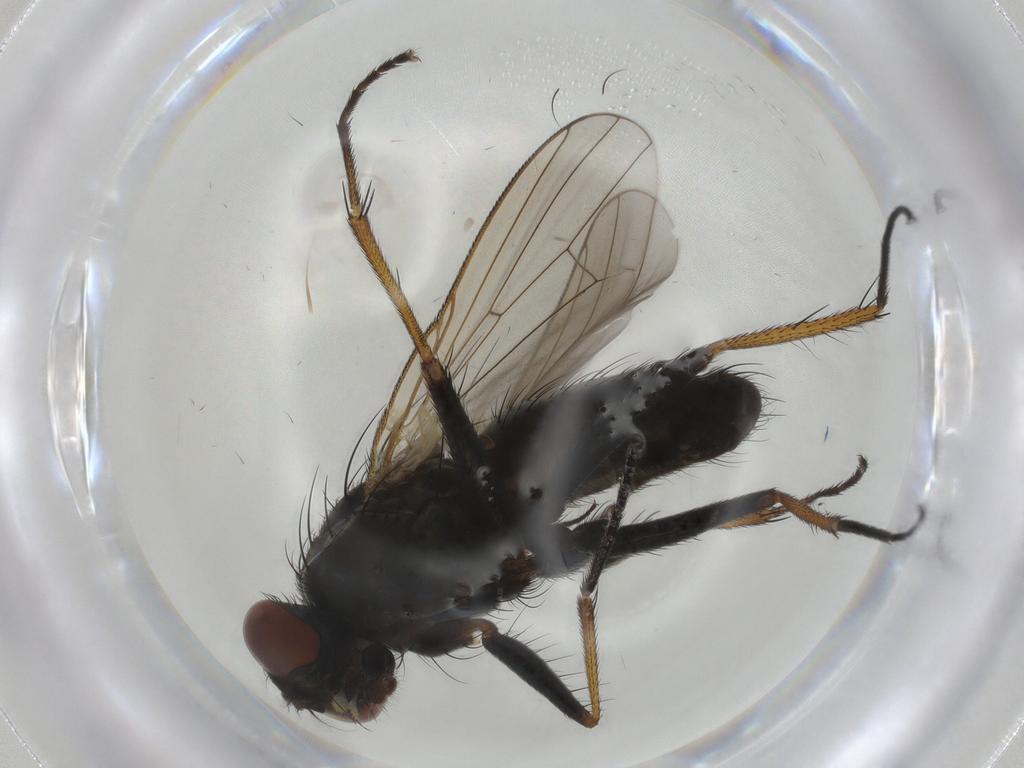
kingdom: Animalia
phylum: Arthropoda
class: Insecta
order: Diptera
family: Muscidae
